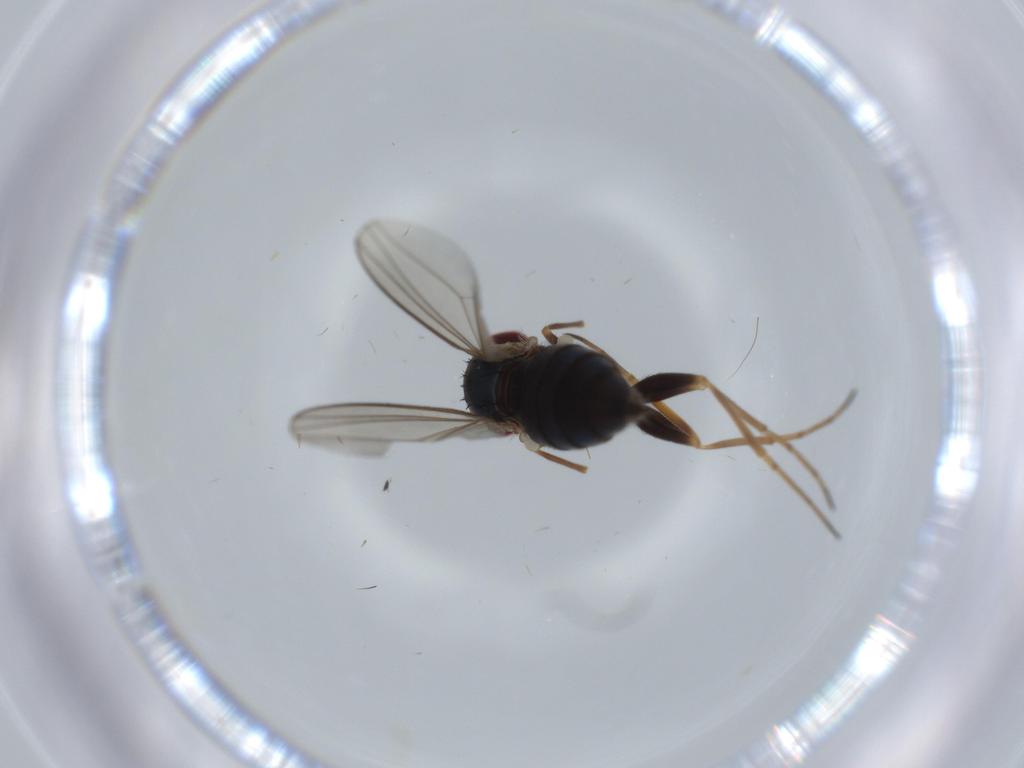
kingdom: Animalia
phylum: Arthropoda
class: Insecta
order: Diptera
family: Dolichopodidae
